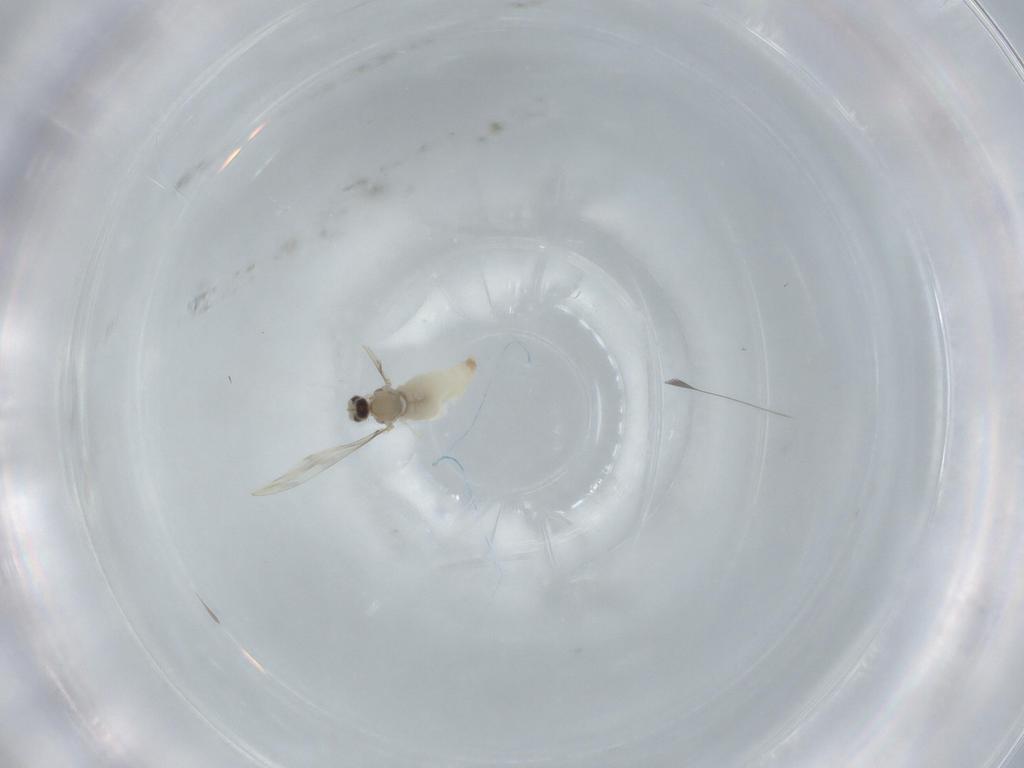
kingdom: Animalia
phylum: Arthropoda
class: Insecta
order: Diptera
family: Cecidomyiidae
